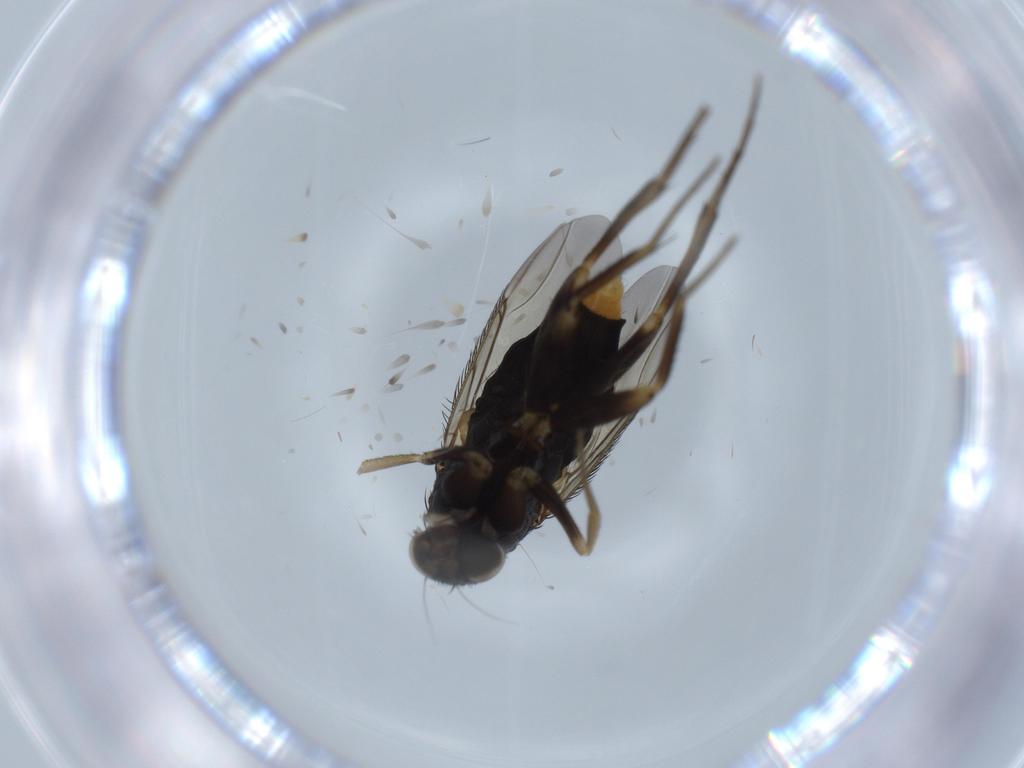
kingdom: Animalia
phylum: Arthropoda
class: Insecta
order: Diptera
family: Phoridae
